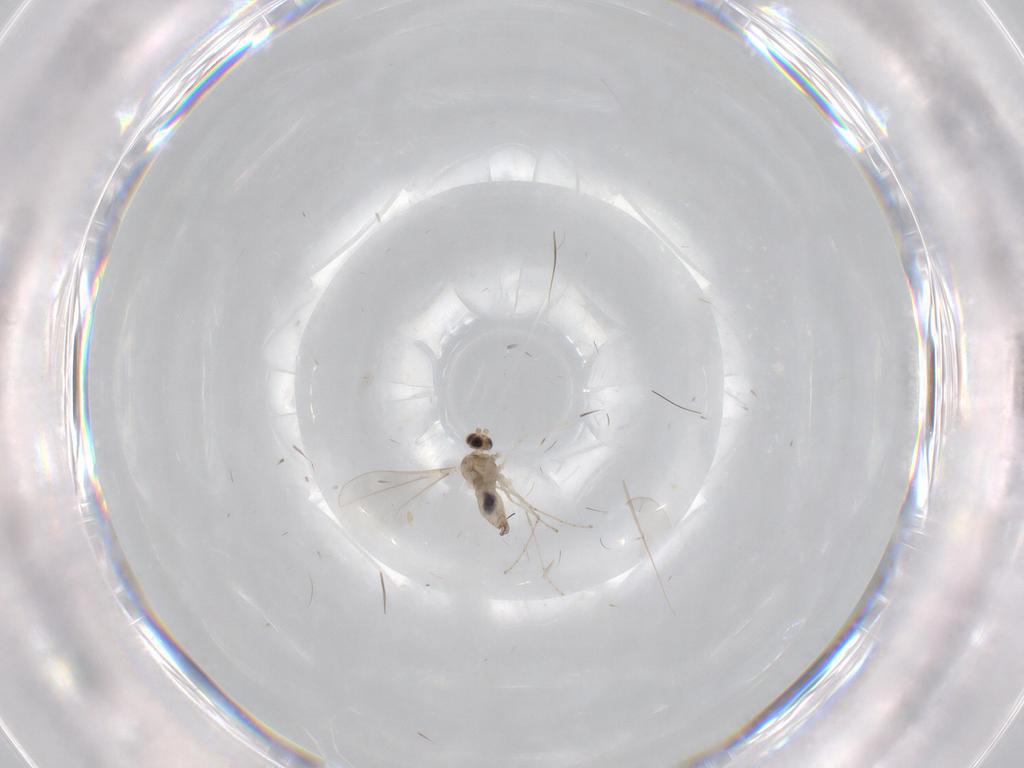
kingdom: Animalia
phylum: Arthropoda
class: Insecta
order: Diptera
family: Cecidomyiidae
